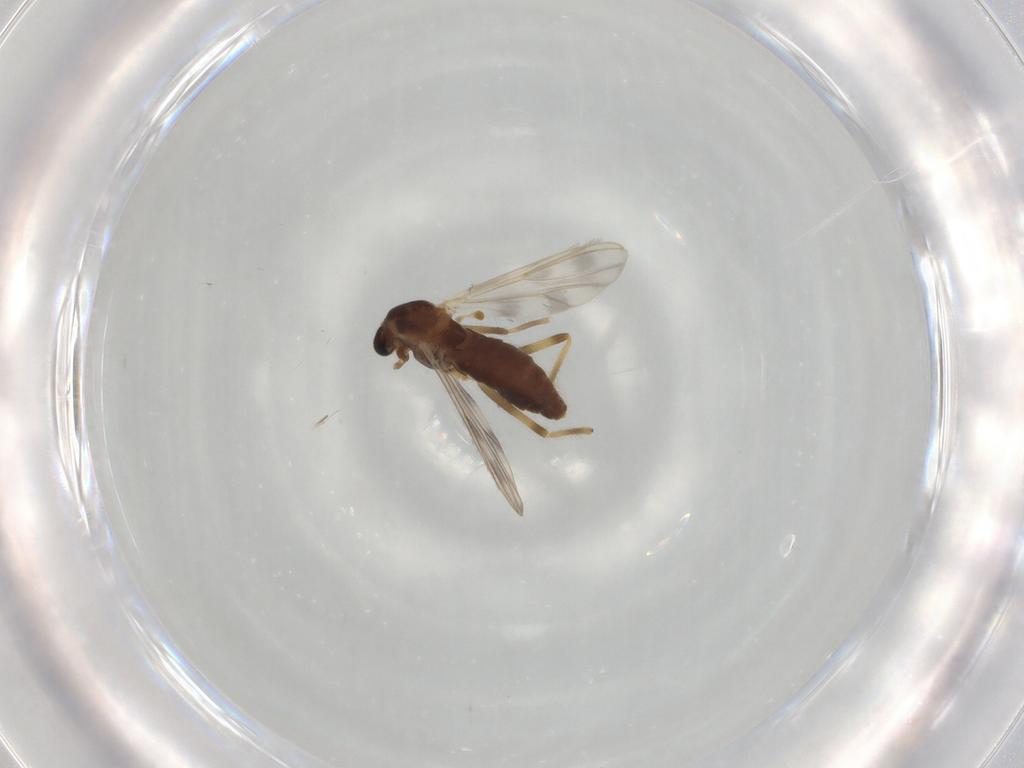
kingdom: Animalia
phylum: Arthropoda
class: Insecta
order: Diptera
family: Chironomidae
